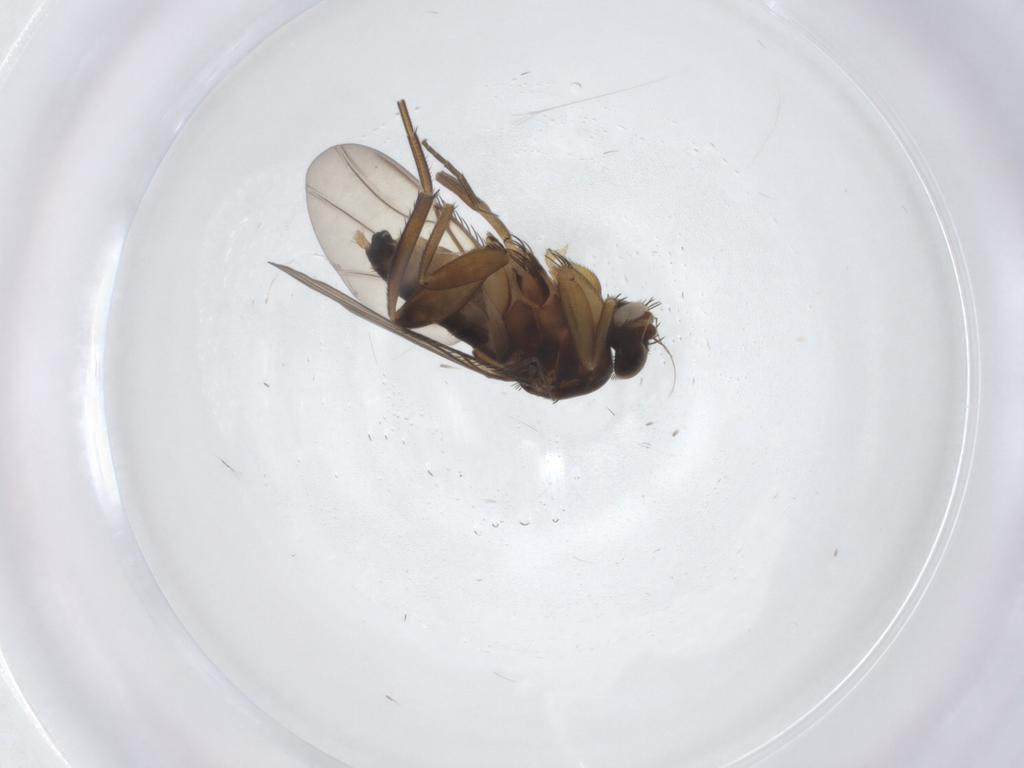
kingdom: Animalia
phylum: Arthropoda
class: Insecta
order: Diptera
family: Phoridae
